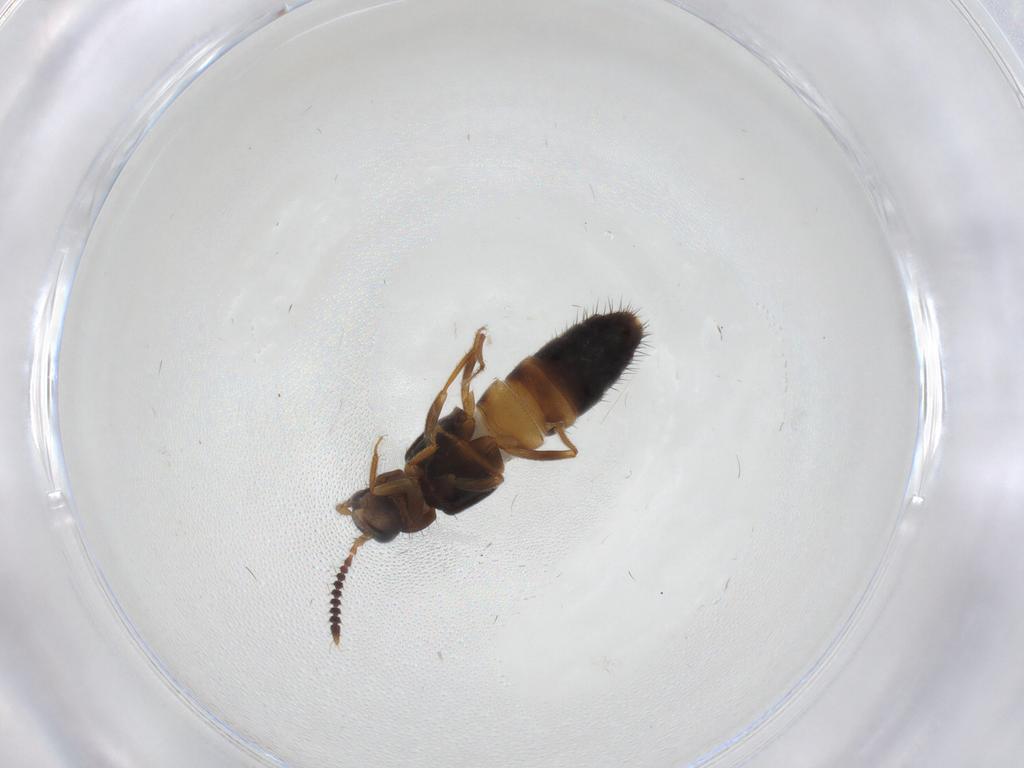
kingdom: Animalia
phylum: Arthropoda
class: Insecta
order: Coleoptera
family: Staphylinidae
